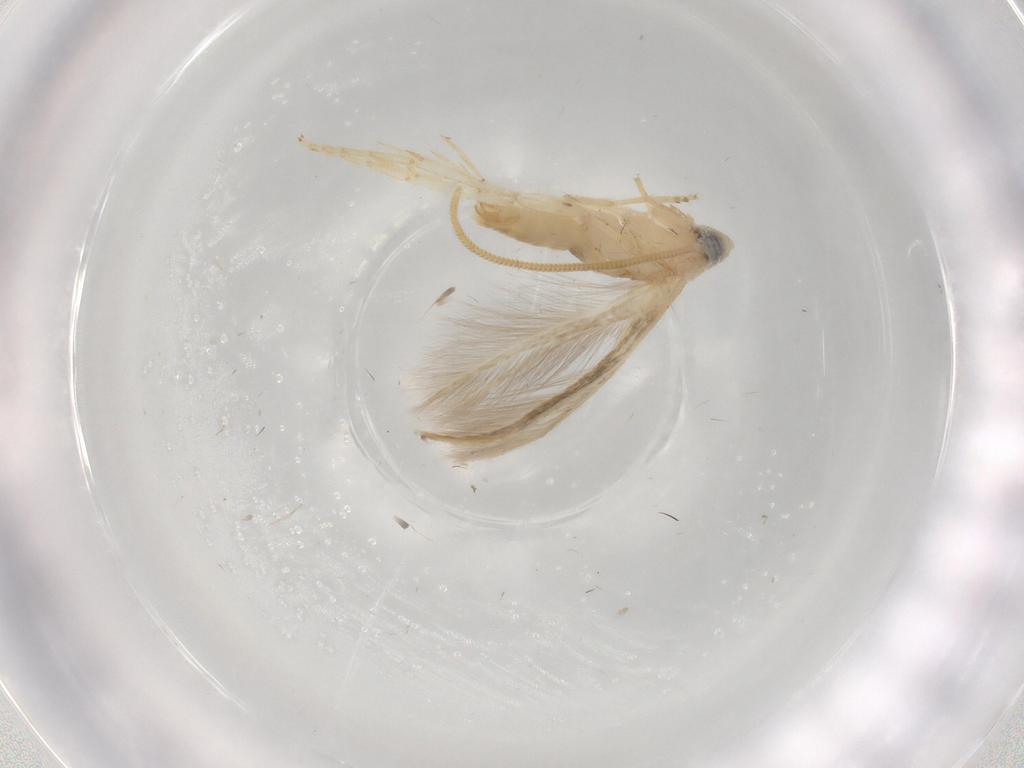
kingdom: Animalia
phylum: Arthropoda
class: Insecta
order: Lepidoptera
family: Opostegidae
